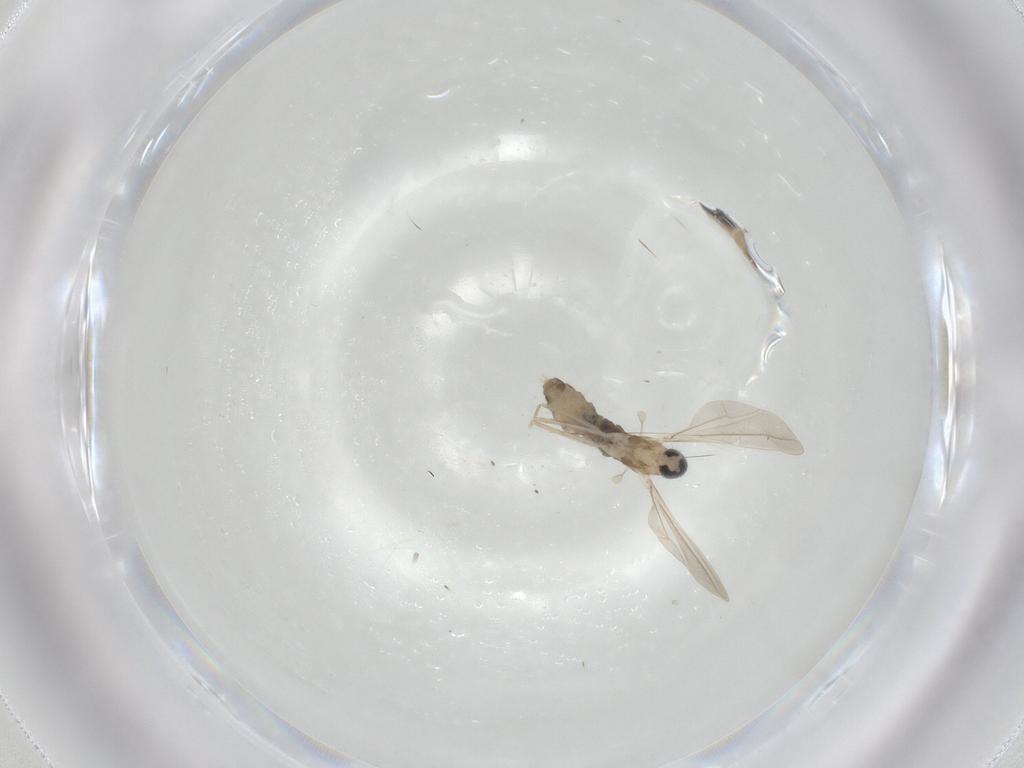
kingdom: Animalia
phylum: Arthropoda
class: Insecta
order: Diptera
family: Cecidomyiidae
